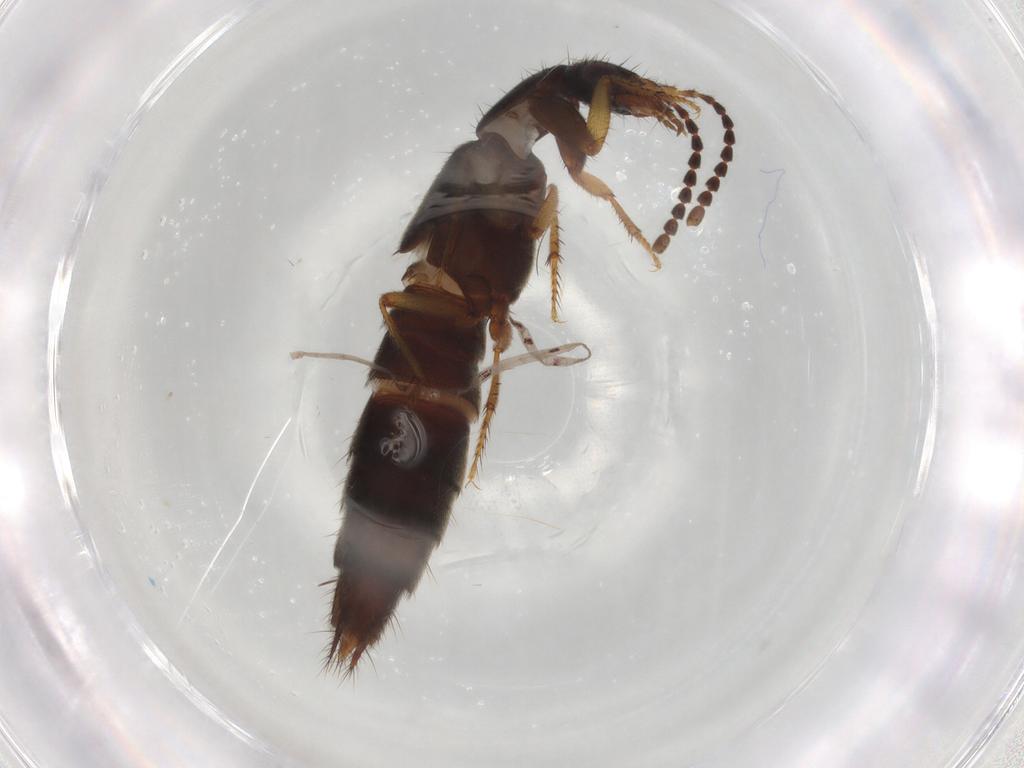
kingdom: Animalia
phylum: Arthropoda
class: Insecta
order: Coleoptera
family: Staphylinidae
